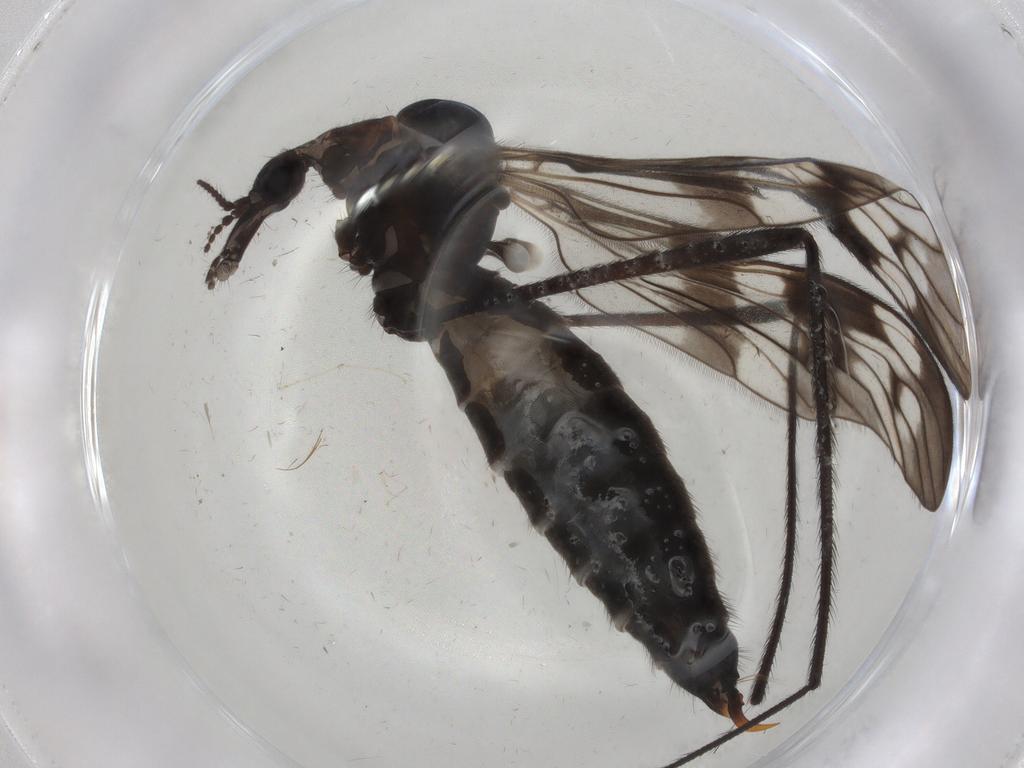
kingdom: Animalia
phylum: Arthropoda
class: Insecta
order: Diptera
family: Limoniidae
